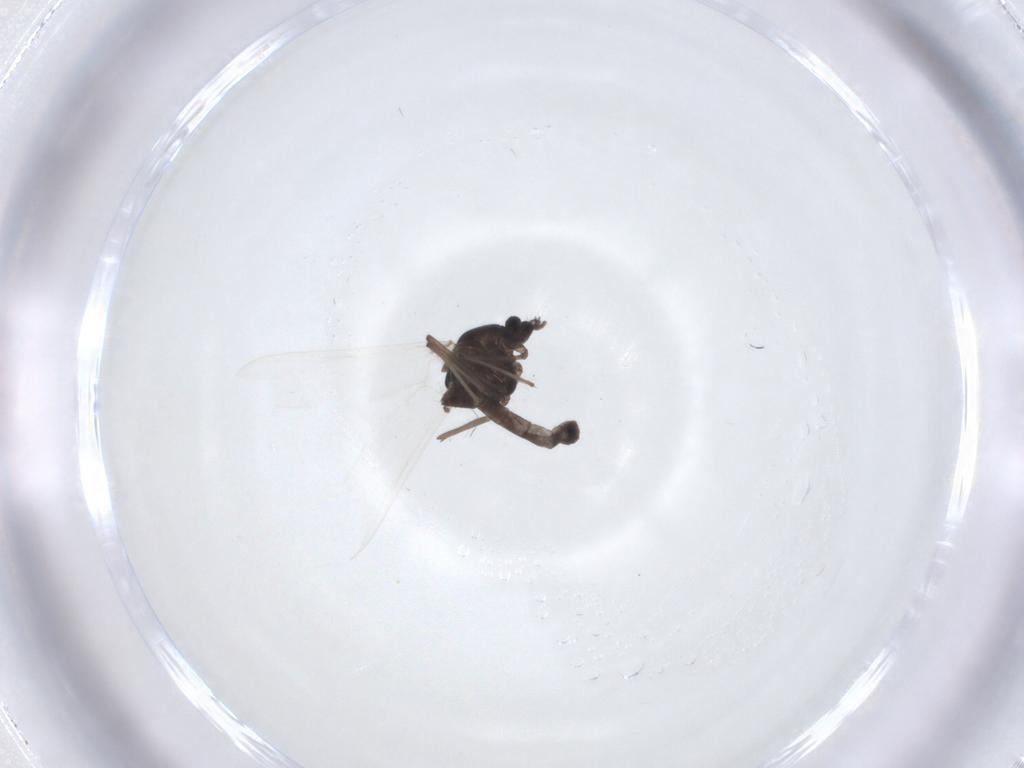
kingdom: Animalia
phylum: Arthropoda
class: Insecta
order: Diptera
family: Chironomidae
